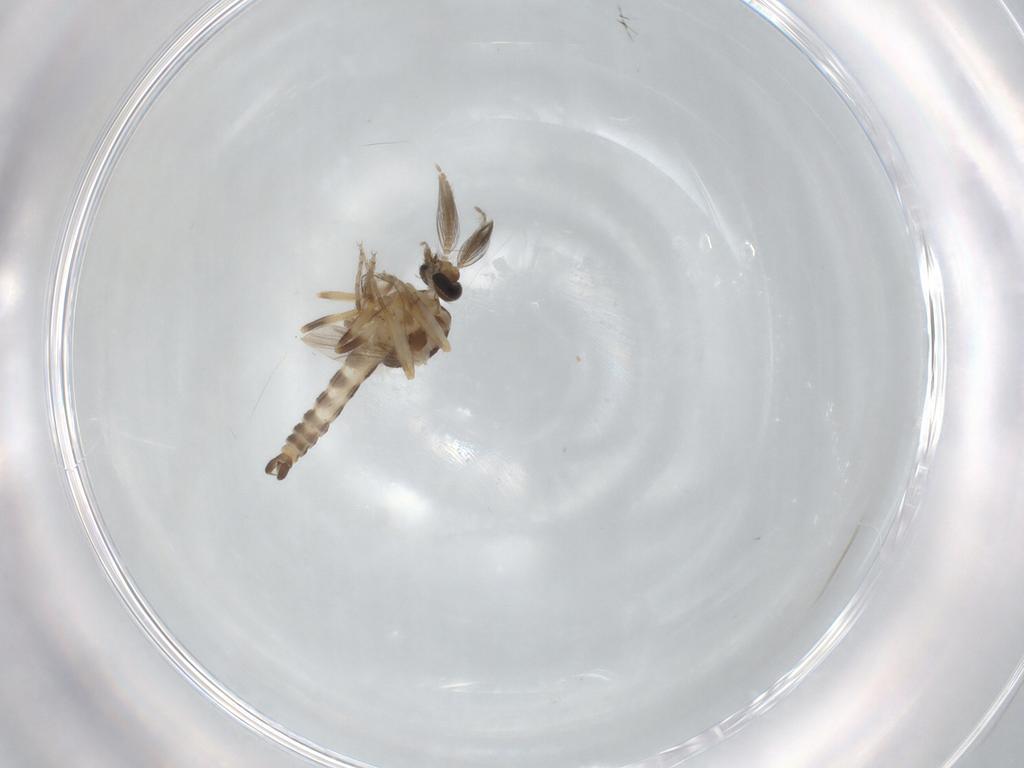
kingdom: Animalia
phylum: Arthropoda
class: Insecta
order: Diptera
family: Ceratopogonidae
